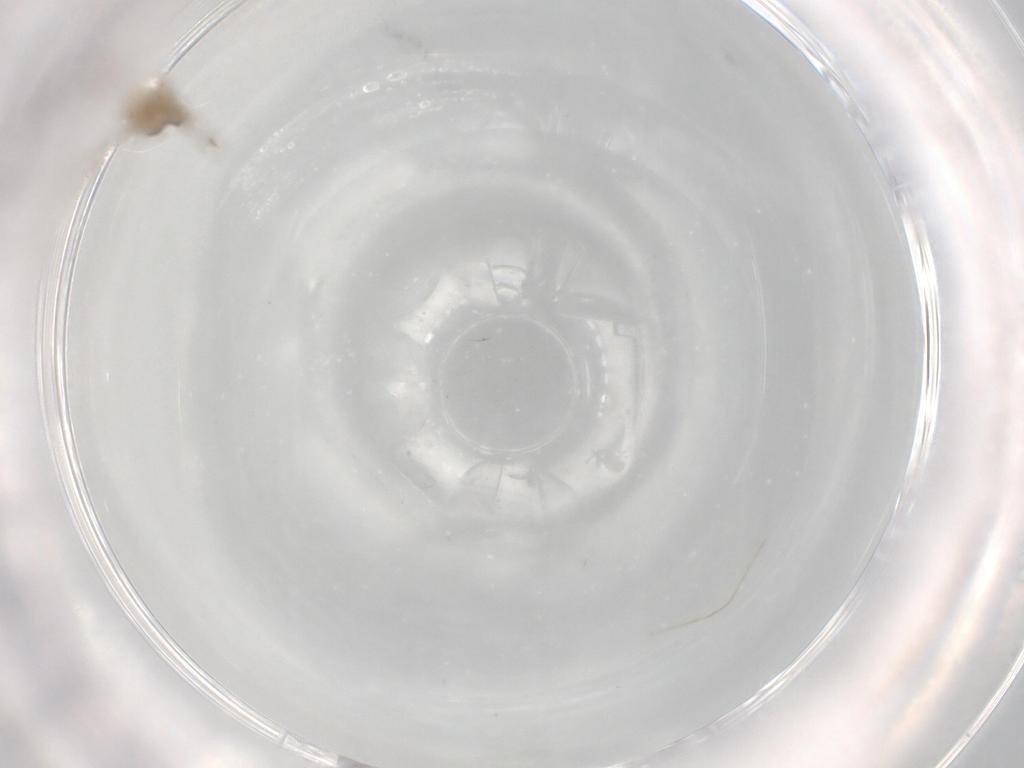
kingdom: Animalia
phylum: Arthropoda
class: Insecta
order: Diptera
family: Cecidomyiidae
